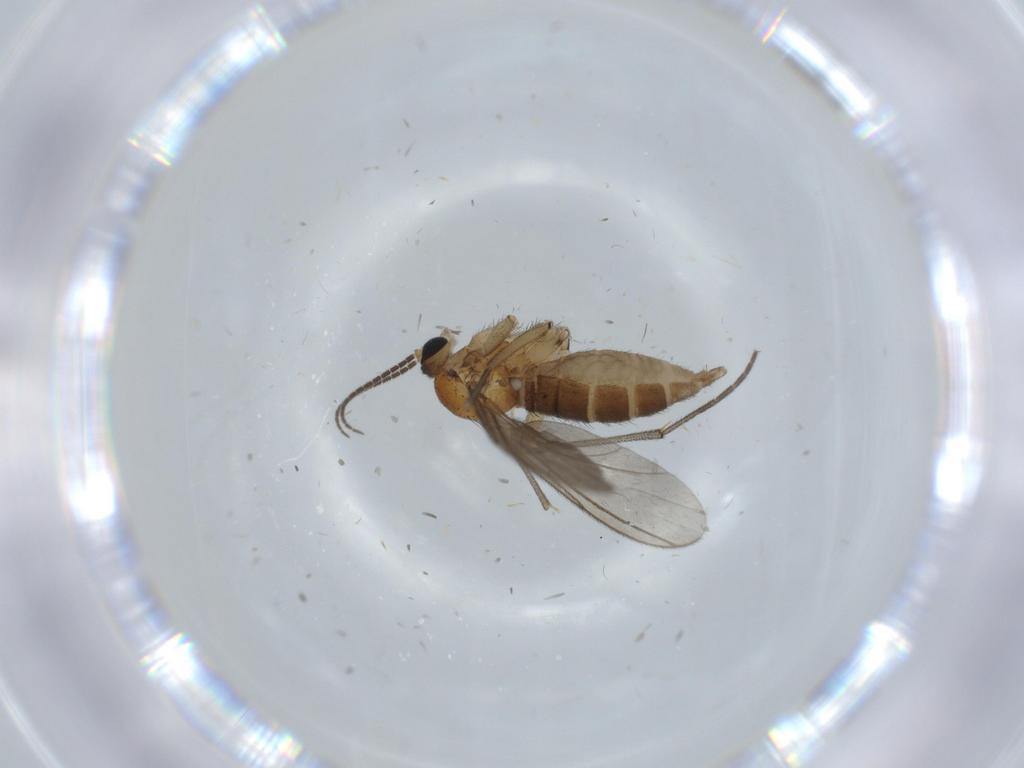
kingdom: Animalia
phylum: Arthropoda
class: Insecta
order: Diptera
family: Sciaridae
